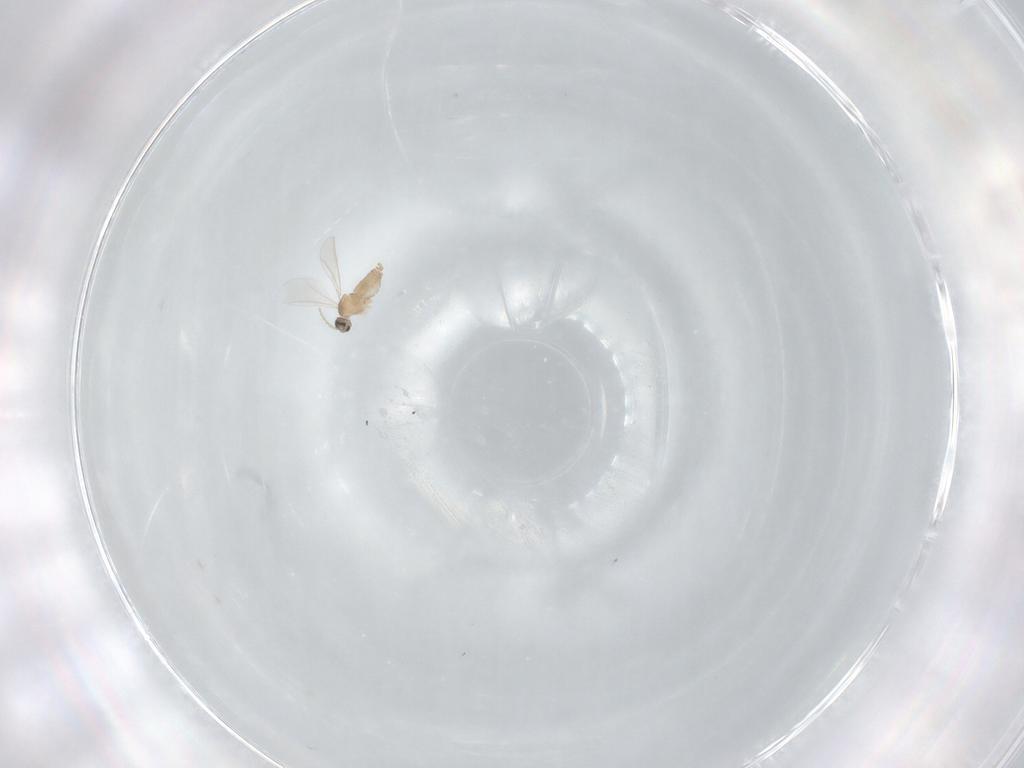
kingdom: Animalia
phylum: Arthropoda
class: Insecta
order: Diptera
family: Cecidomyiidae
